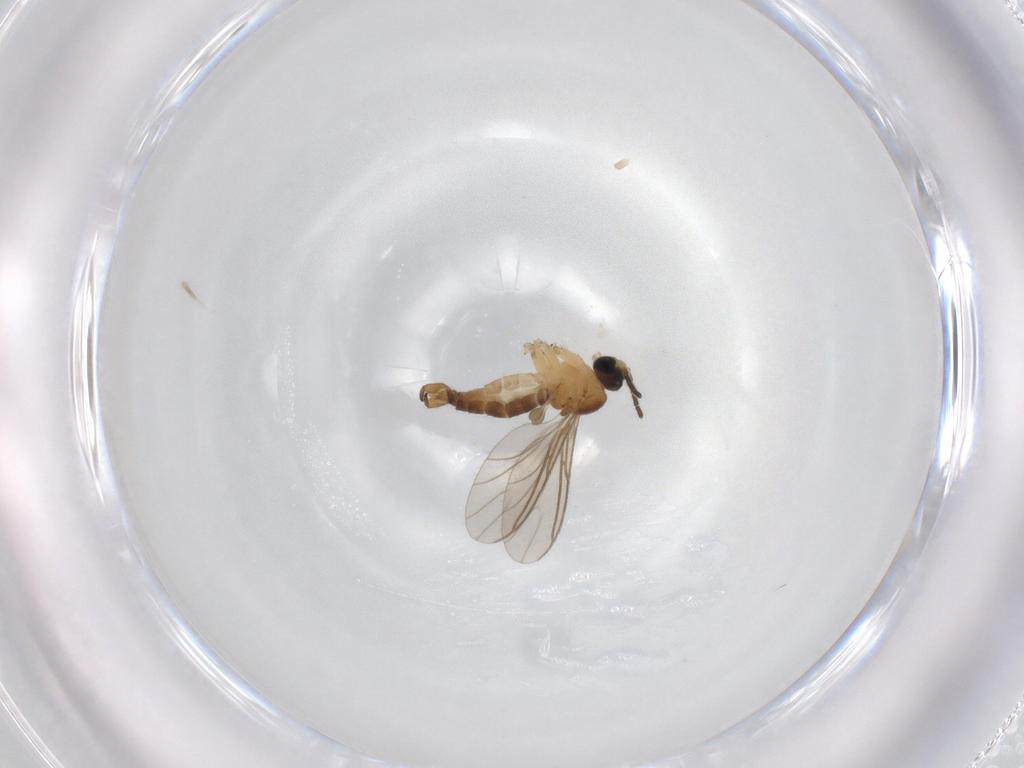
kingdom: Animalia
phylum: Arthropoda
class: Insecta
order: Diptera
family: Sciaridae
